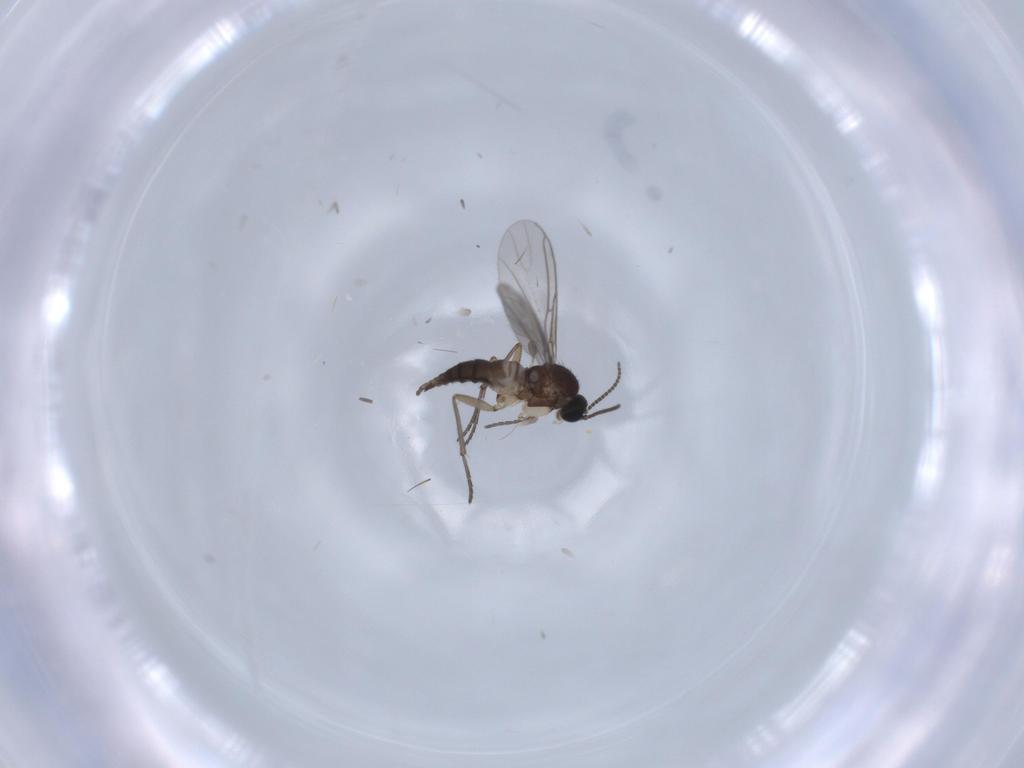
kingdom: Animalia
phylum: Arthropoda
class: Insecta
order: Diptera
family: Sciaridae
